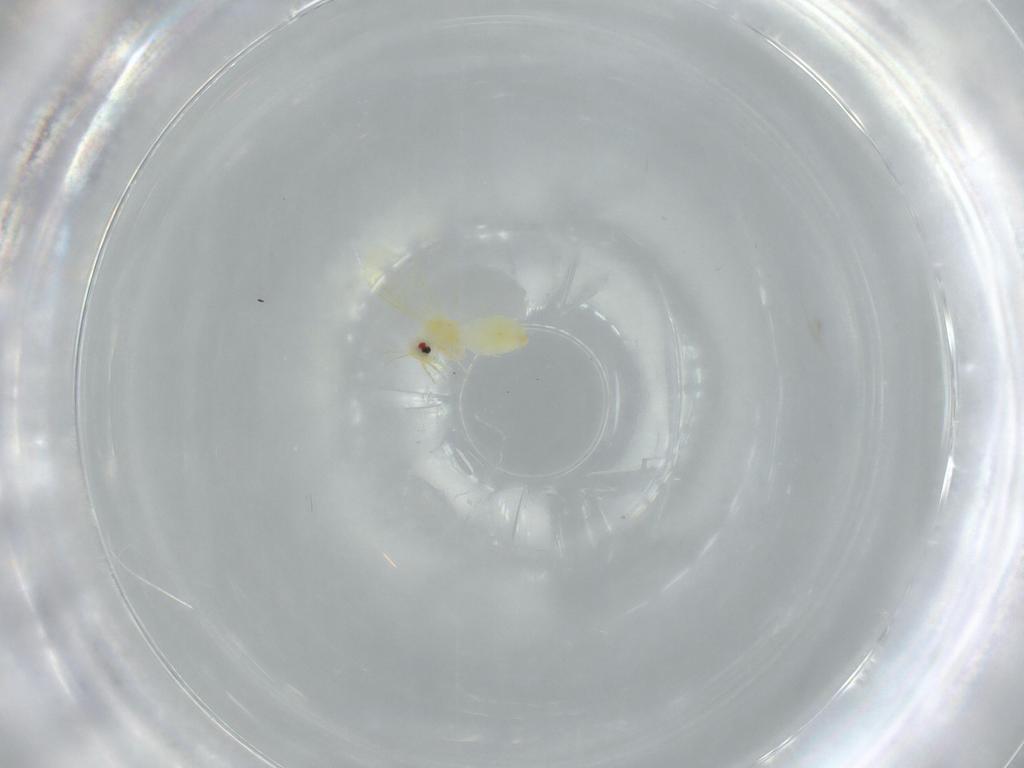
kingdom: Animalia
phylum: Arthropoda
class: Insecta
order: Hemiptera
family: Aleyrodidae
